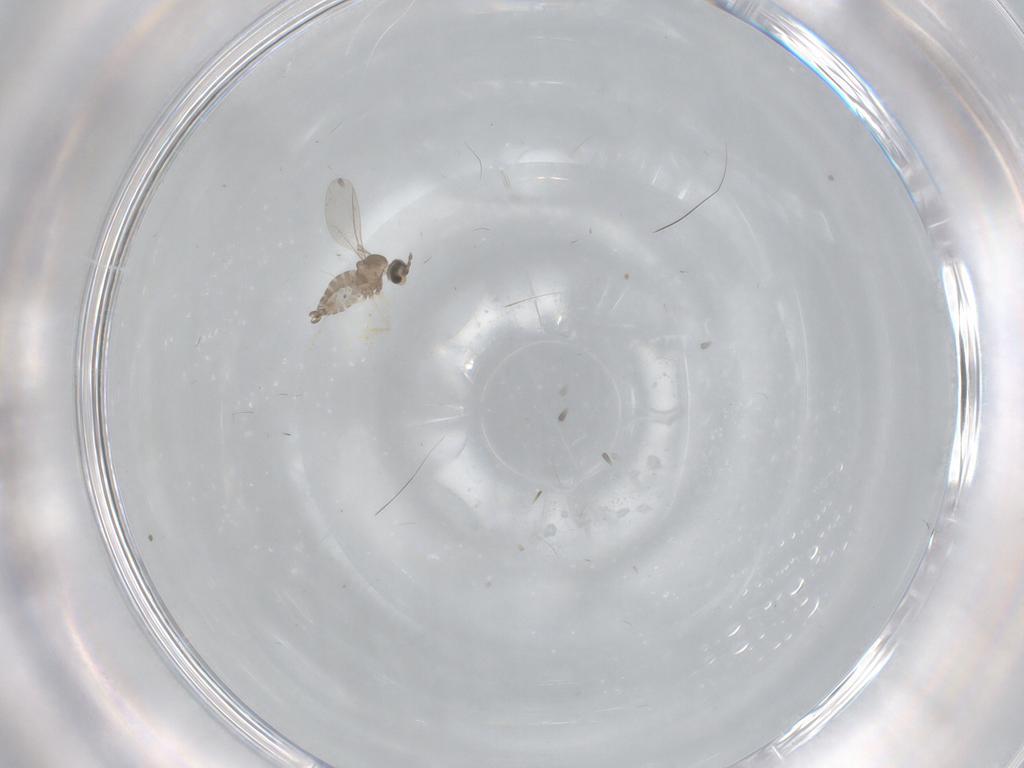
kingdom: Animalia
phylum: Arthropoda
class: Insecta
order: Diptera
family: Cecidomyiidae
